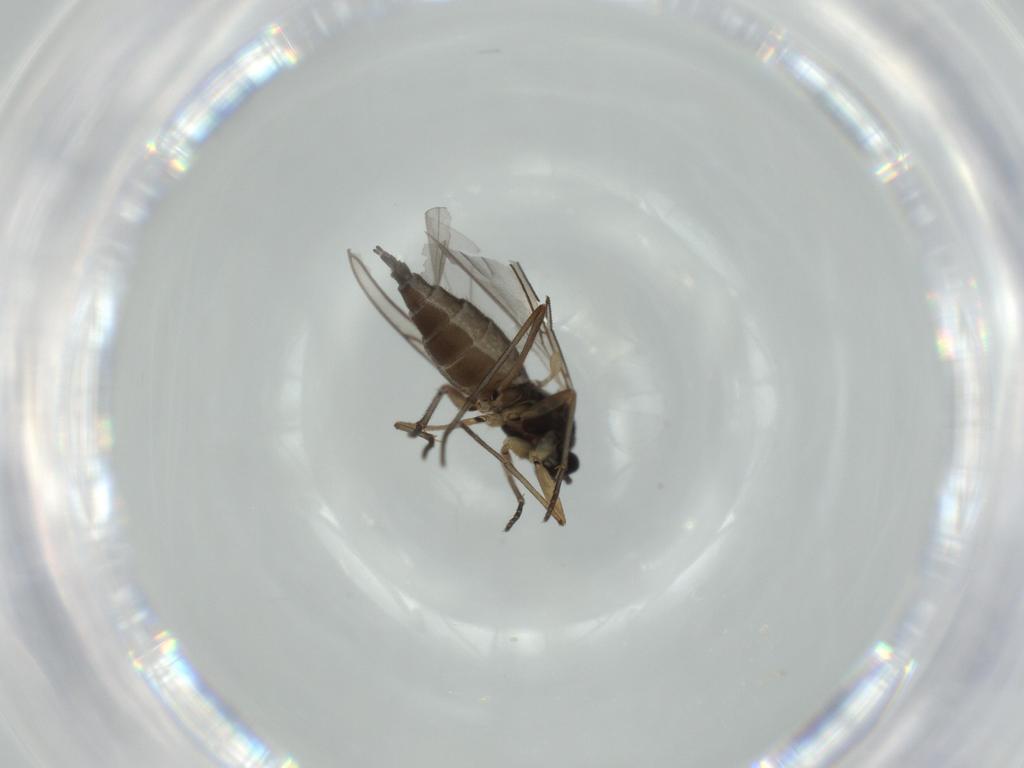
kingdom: Animalia
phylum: Arthropoda
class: Insecta
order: Diptera
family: Sciaridae
